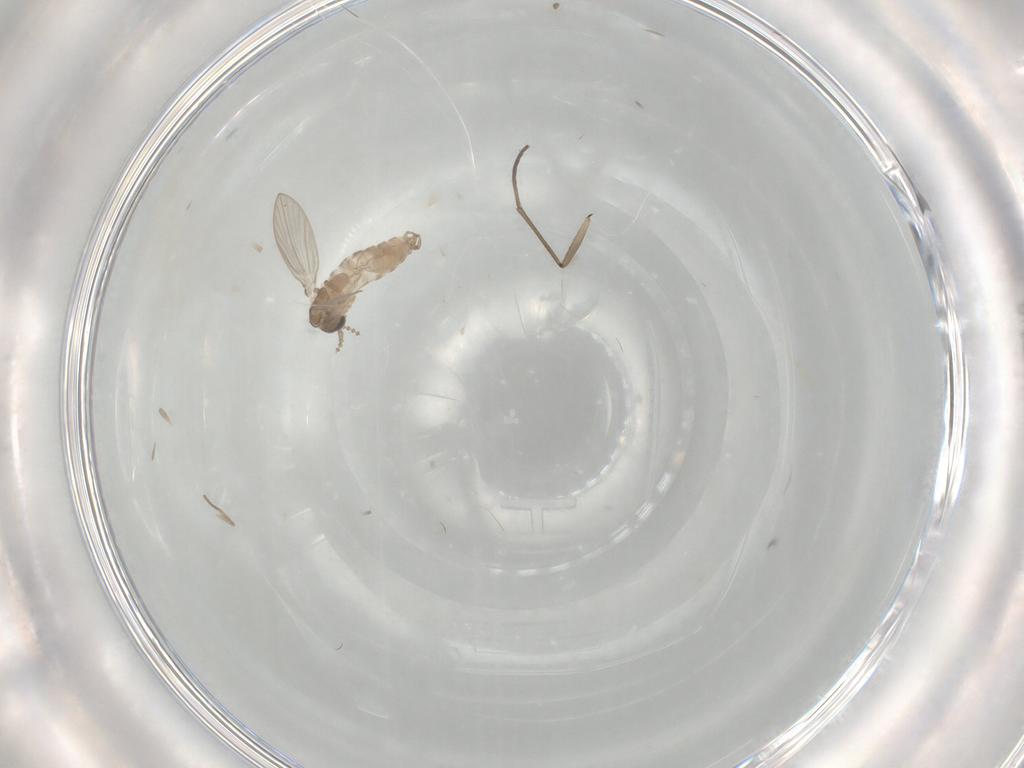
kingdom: Animalia
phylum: Arthropoda
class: Insecta
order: Diptera
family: Psychodidae
